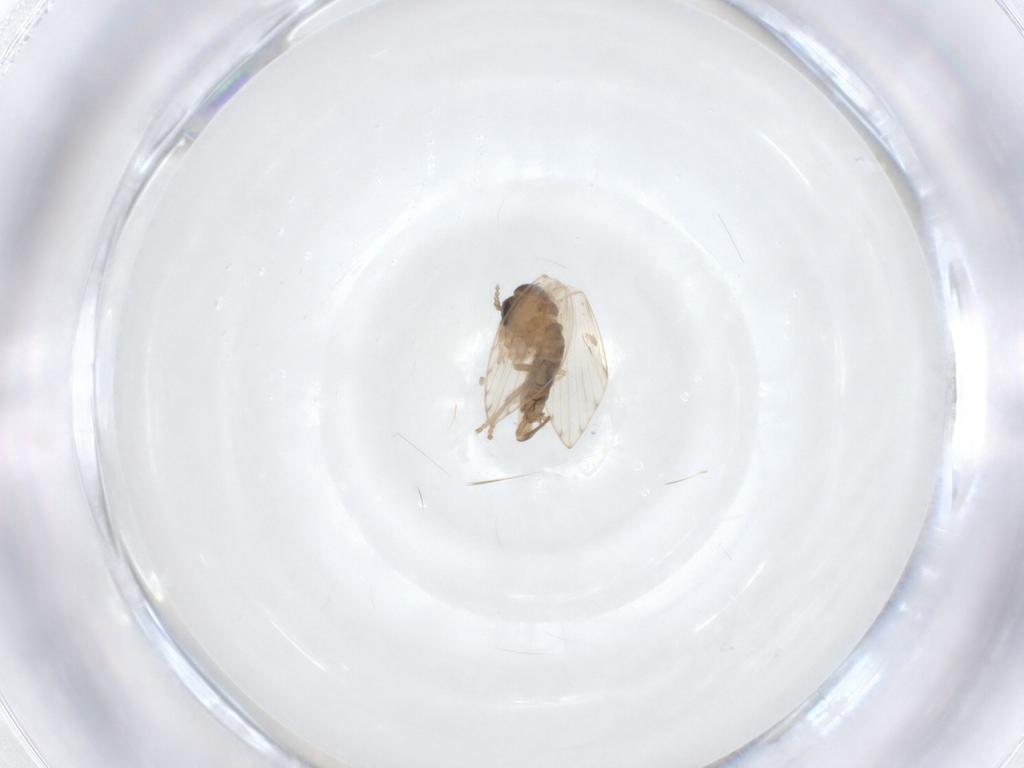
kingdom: Animalia
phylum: Arthropoda
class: Insecta
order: Diptera
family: Psychodidae
